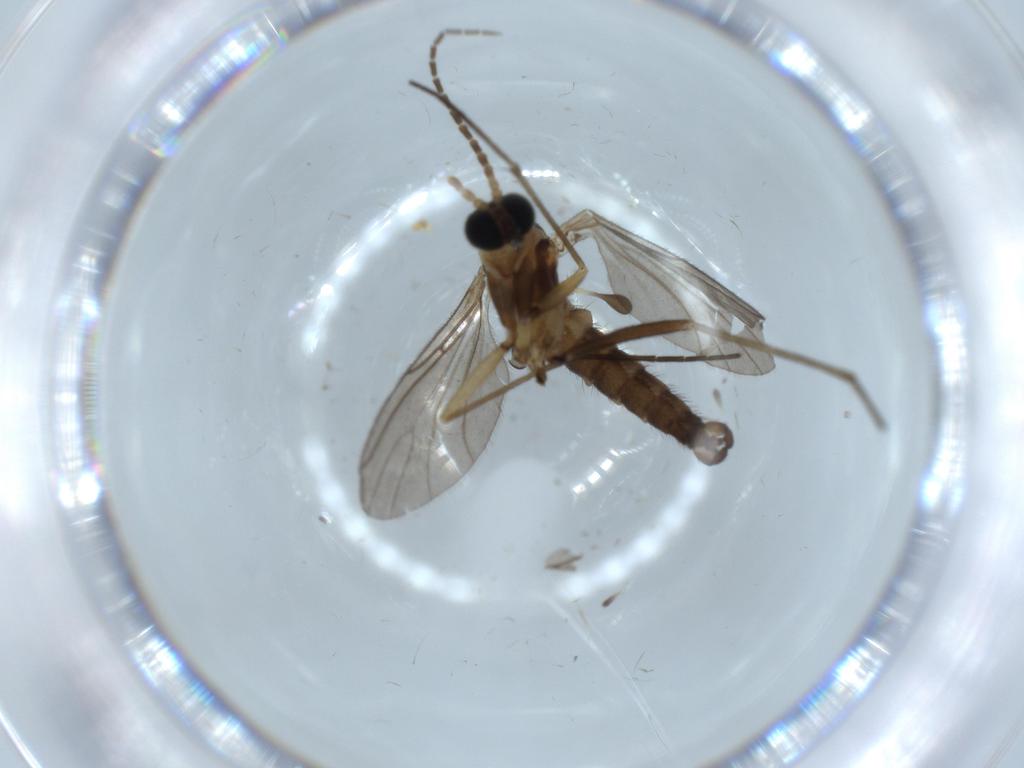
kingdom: Animalia
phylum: Arthropoda
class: Insecta
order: Diptera
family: Sciaridae
